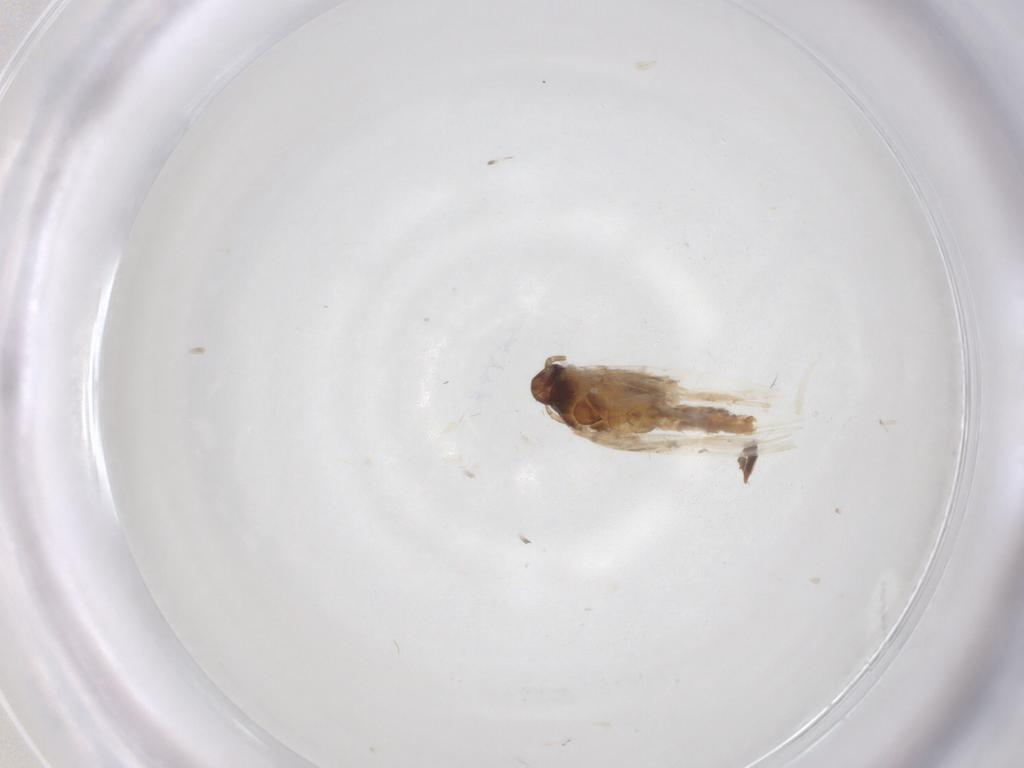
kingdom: Animalia
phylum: Arthropoda
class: Insecta
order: Lepidoptera
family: Gelechiidae
